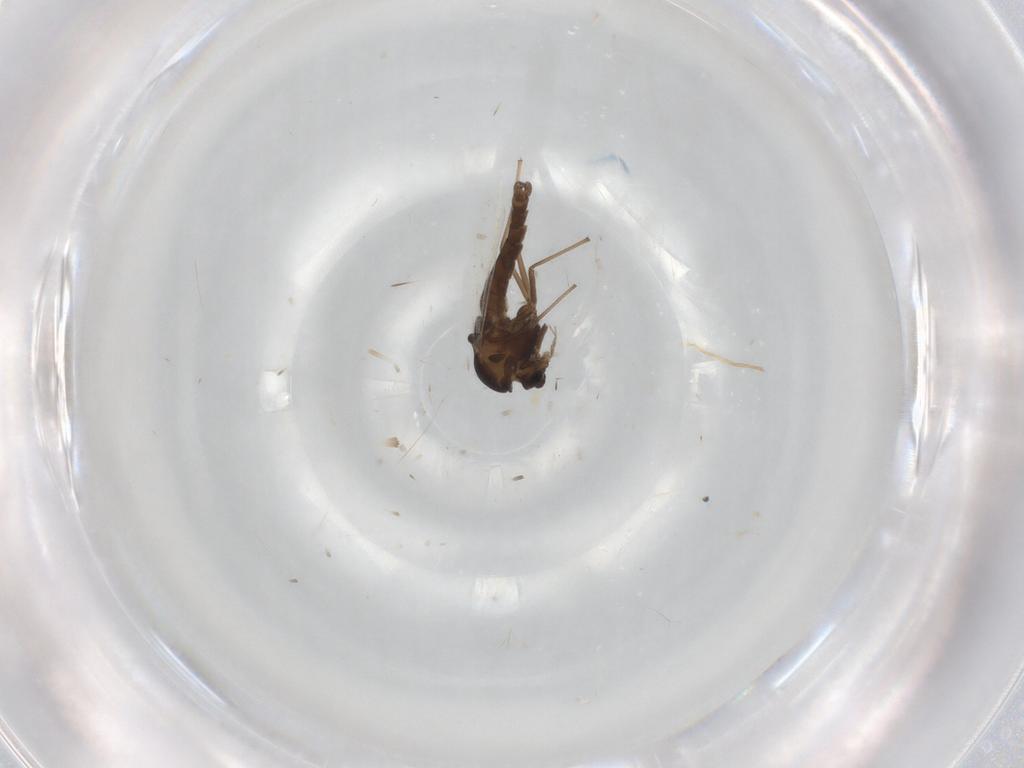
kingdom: Animalia
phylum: Arthropoda
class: Insecta
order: Diptera
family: Chironomidae
